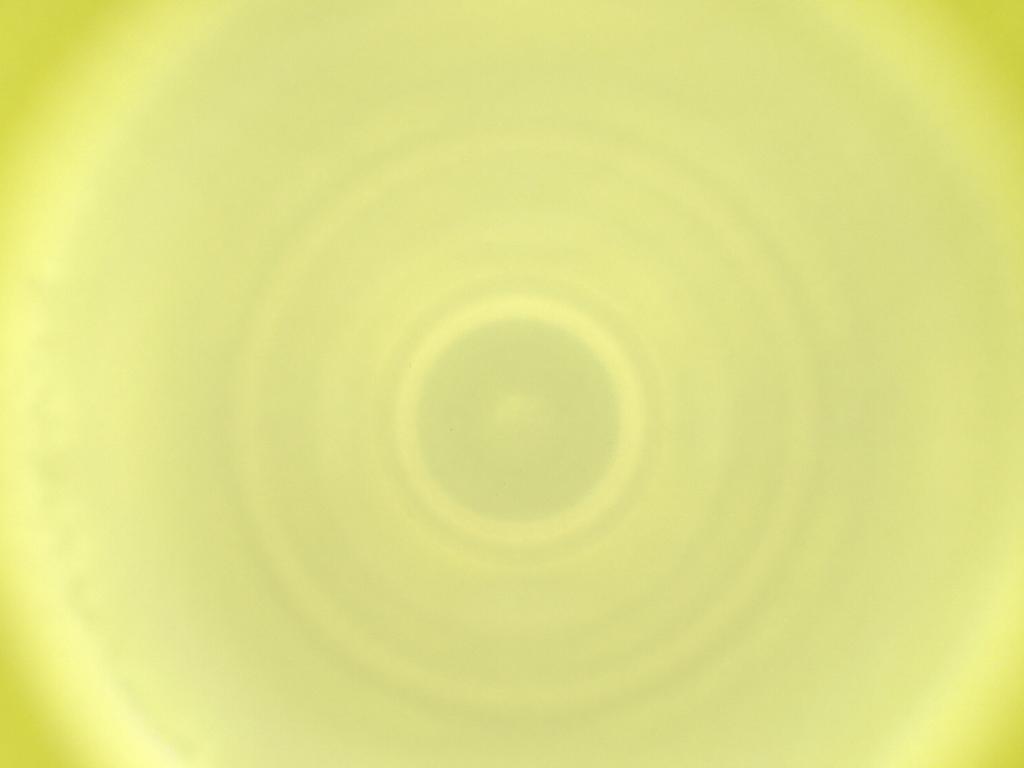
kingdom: Animalia
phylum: Arthropoda
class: Insecta
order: Diptera
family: Cecidomyiidae
